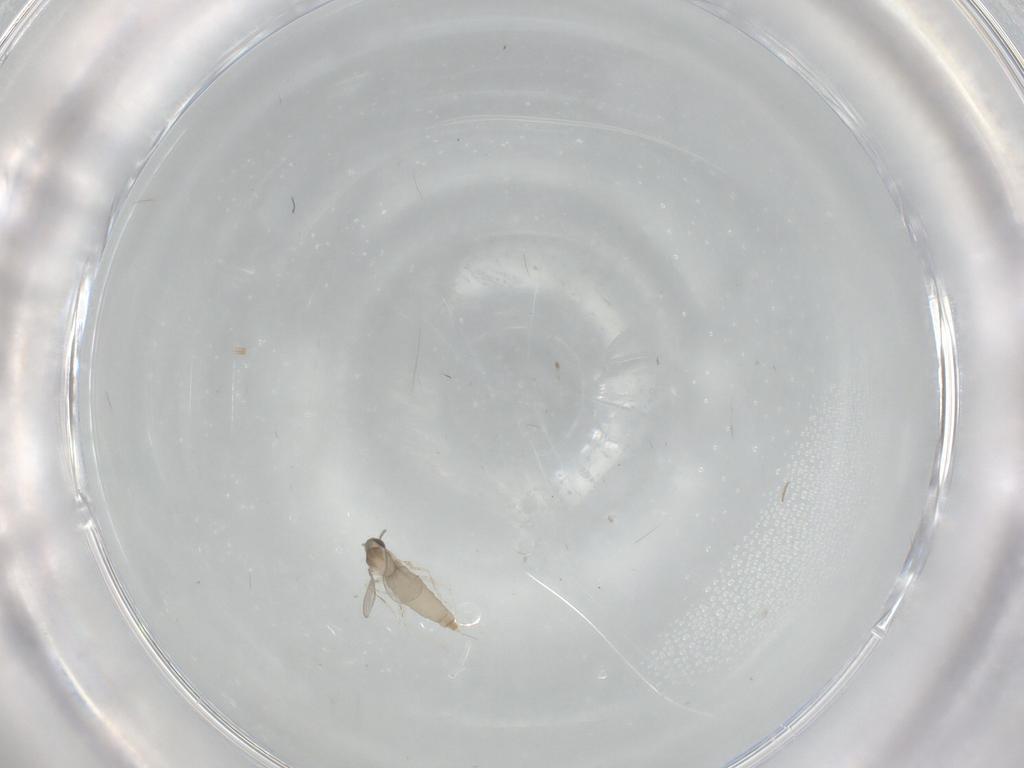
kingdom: Animalia
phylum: Arthropoda
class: Insecta
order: Diptera
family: Cecidomyiidae
